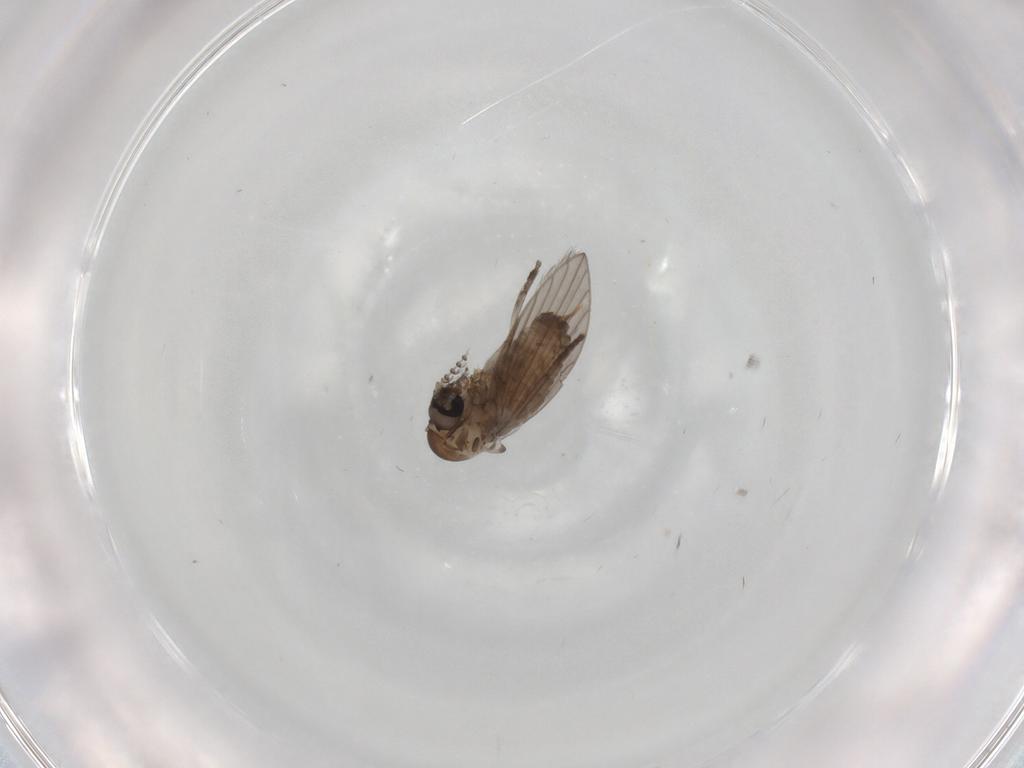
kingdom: Animalia
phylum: Arthropoda
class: Insecta
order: Diptera
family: Psychodidae
